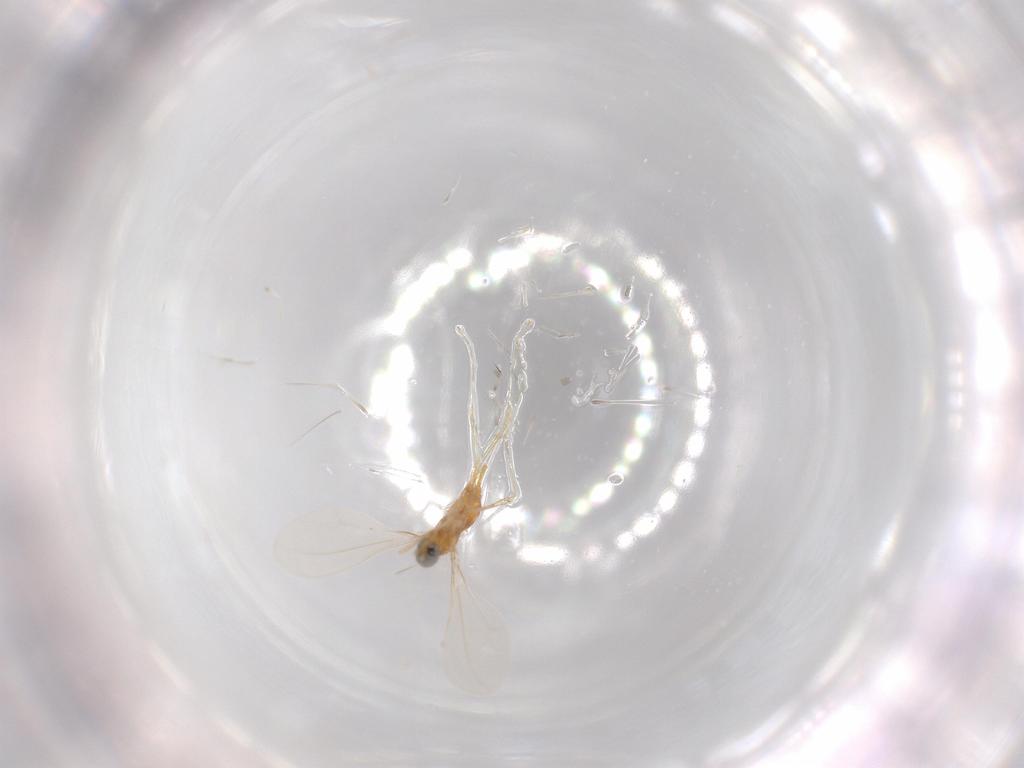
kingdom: Animalia
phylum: Arthropoda
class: Insecta
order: Diptera
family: Cecidomyiidae
